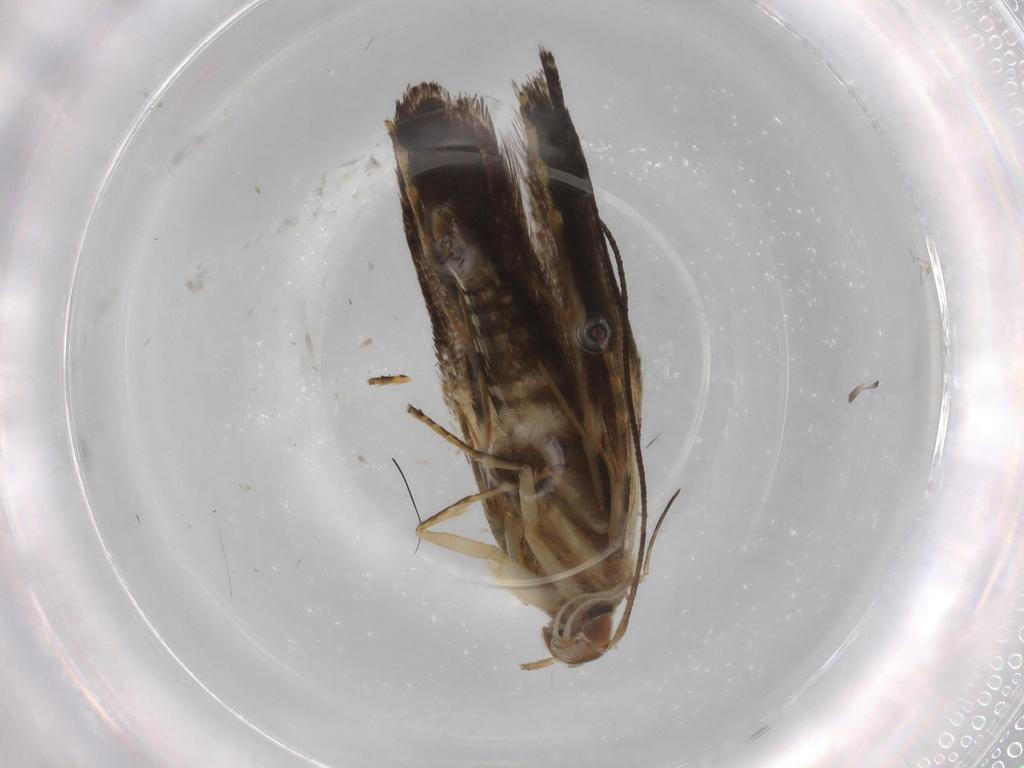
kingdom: Animalia
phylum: Arthropoda
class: Insecta
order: Lepidoptera
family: Gelechiidae
